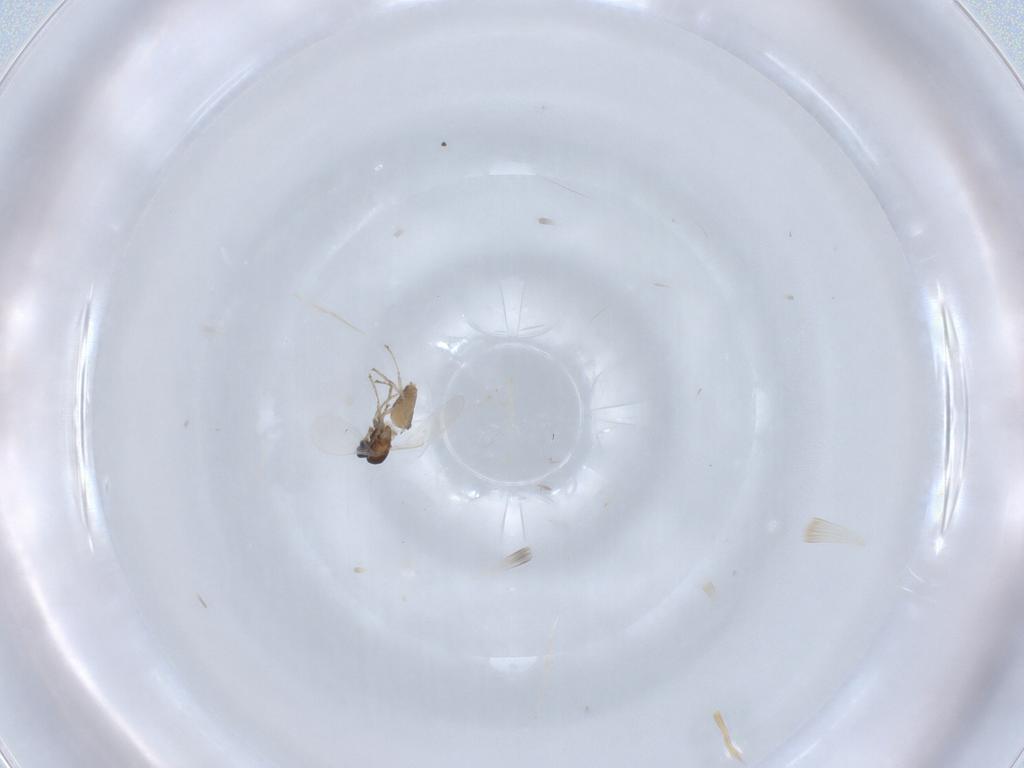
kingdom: Animalia
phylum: Arthropoda
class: Insecta
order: Diptera
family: Cecidomyiidae
